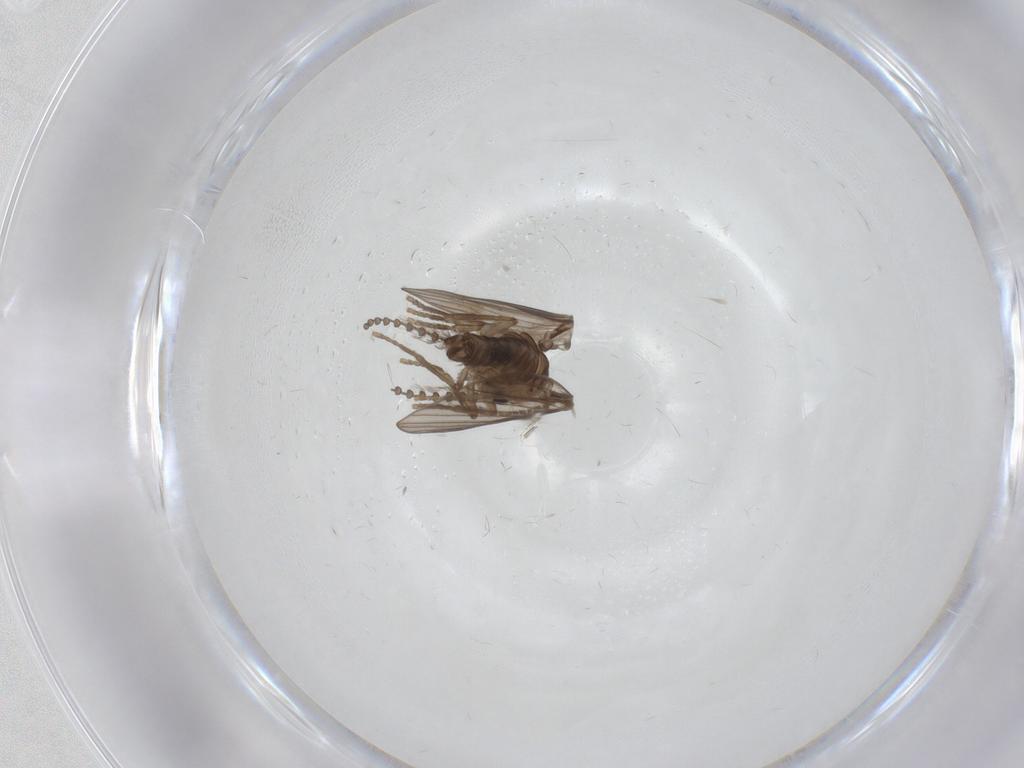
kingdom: Animalia
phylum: Arthropoda
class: Insecta
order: Diptera
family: Psychodidae
